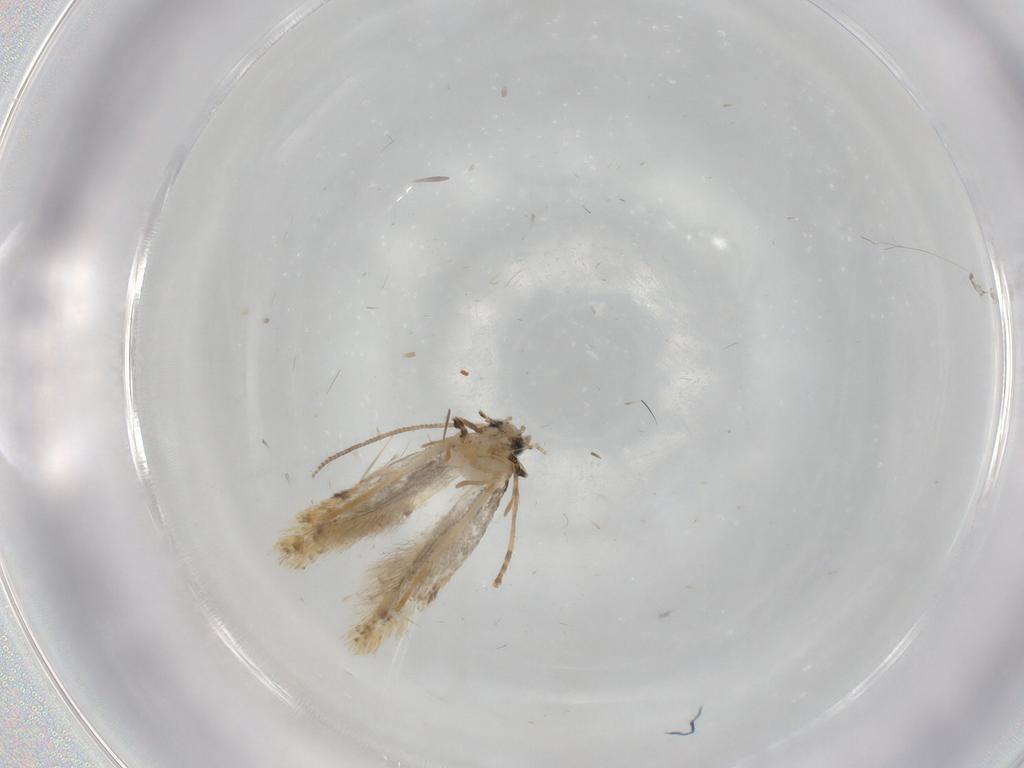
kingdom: Animalia
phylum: Arthropoda
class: Insecta
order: Lepidoptera
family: Tineidae
